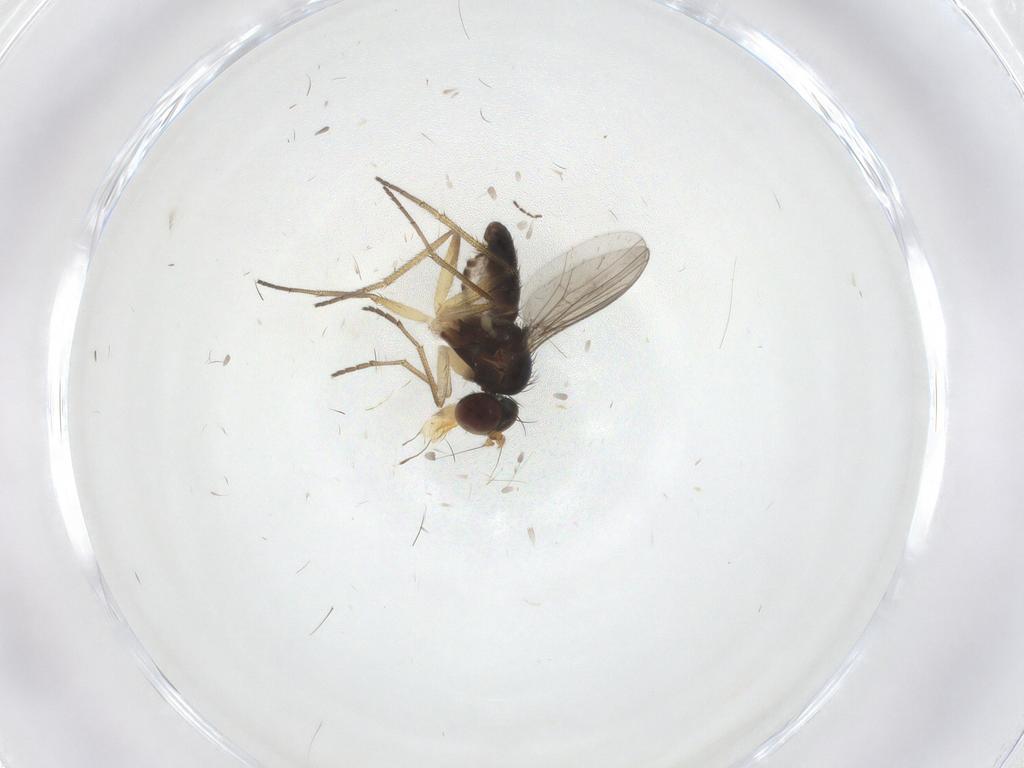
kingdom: Animalia
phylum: Arthropoda
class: Insecta
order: Diptera
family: Dolichopodidae
